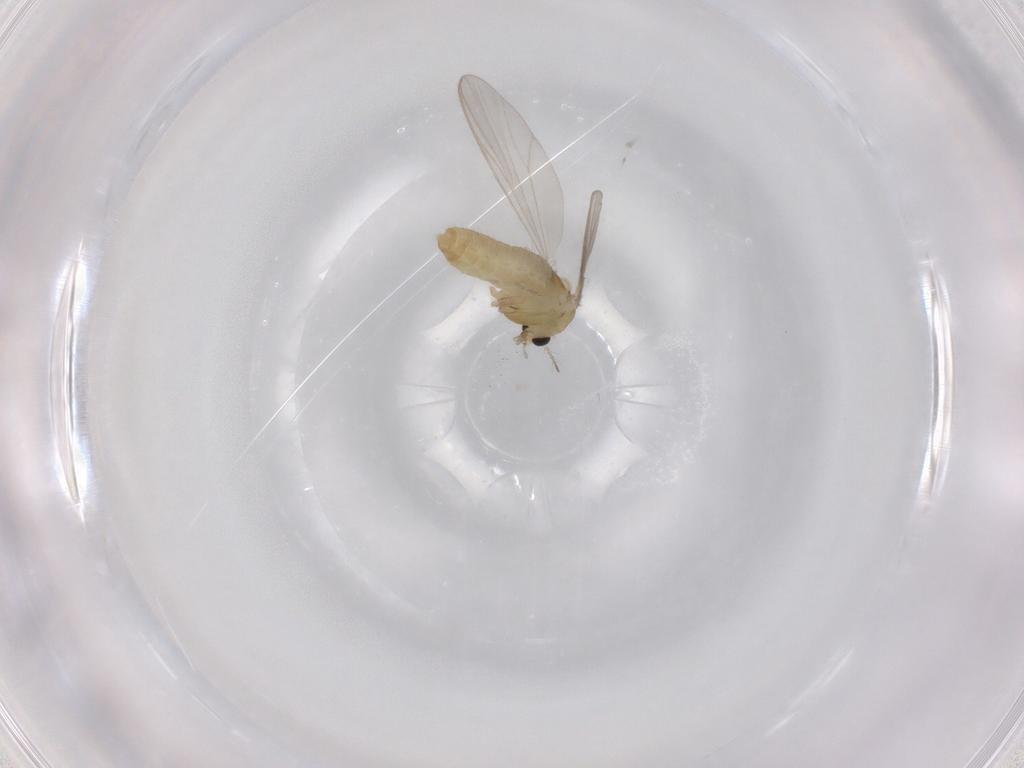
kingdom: Animalia
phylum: Arthropoda
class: Insecta
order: Diptera
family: Chironomidae
